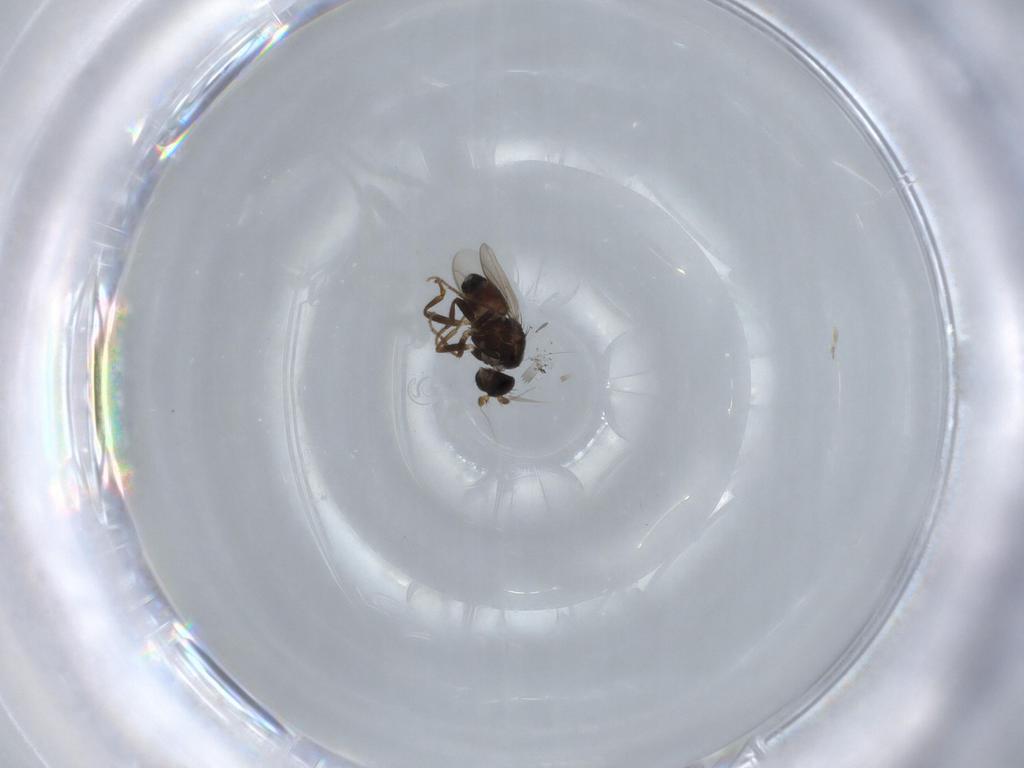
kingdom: Animalia
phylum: Arthropoda
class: Insecta
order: Diptera
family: Sphaeroceridae
